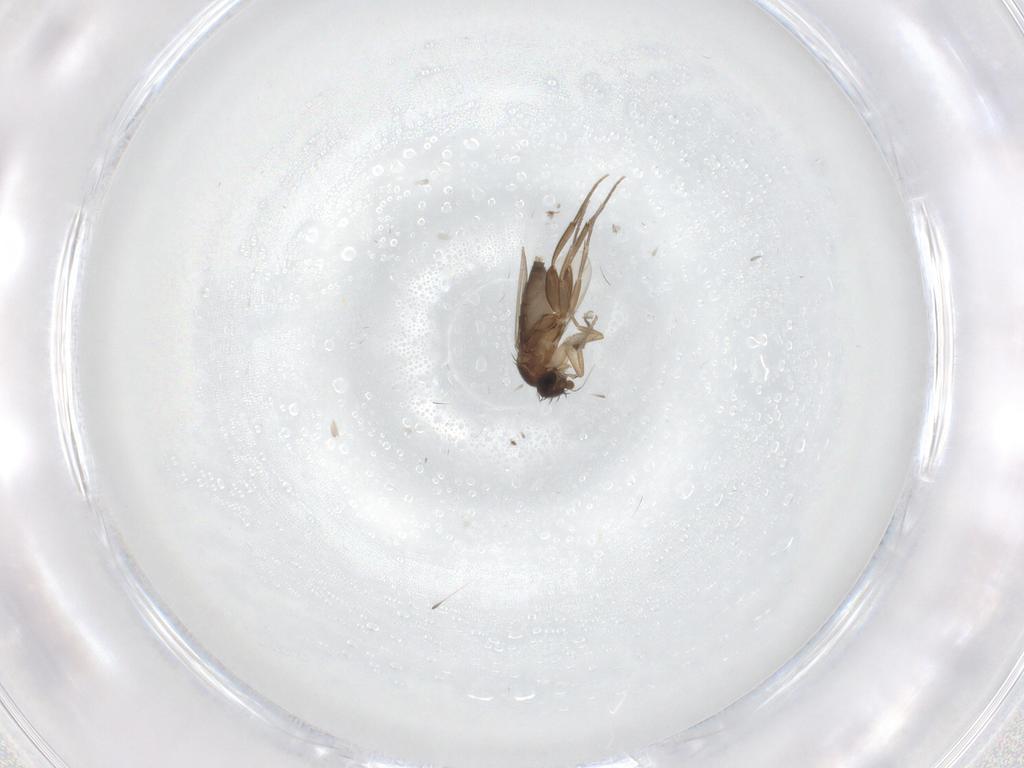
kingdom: Animalia
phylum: Arthropoda
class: Insecta
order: Diptera
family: Phoridae
